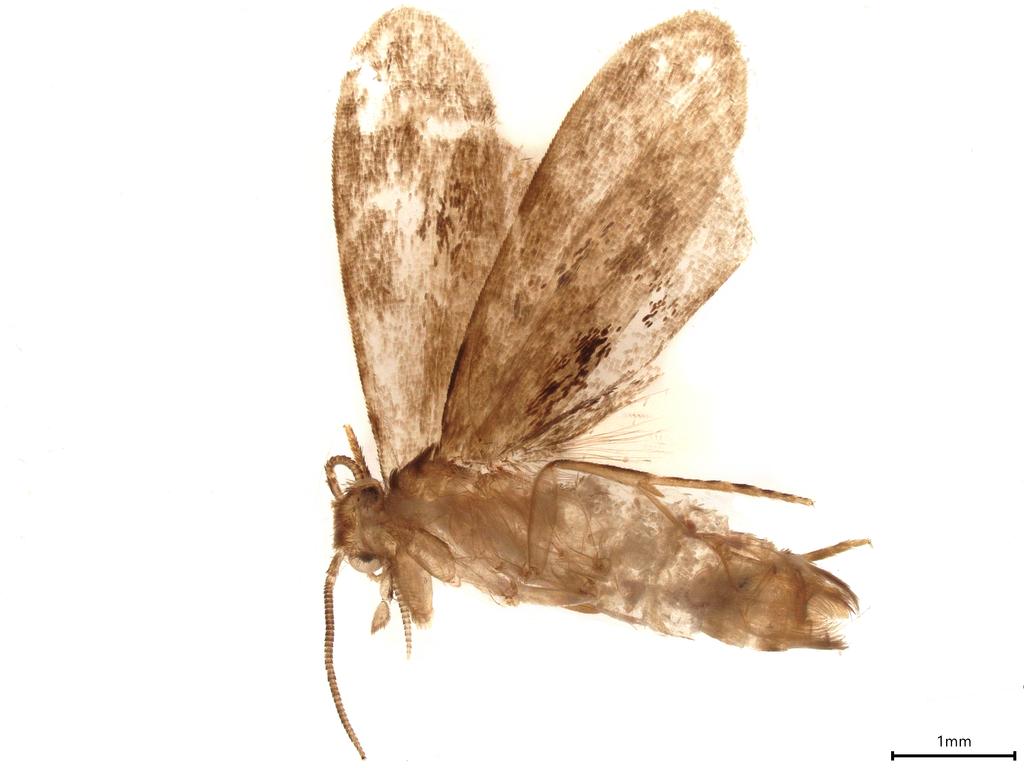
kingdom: Animalia
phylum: Arthropoda
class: Insecta
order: Lepidoptera
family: Dryadaulidae
